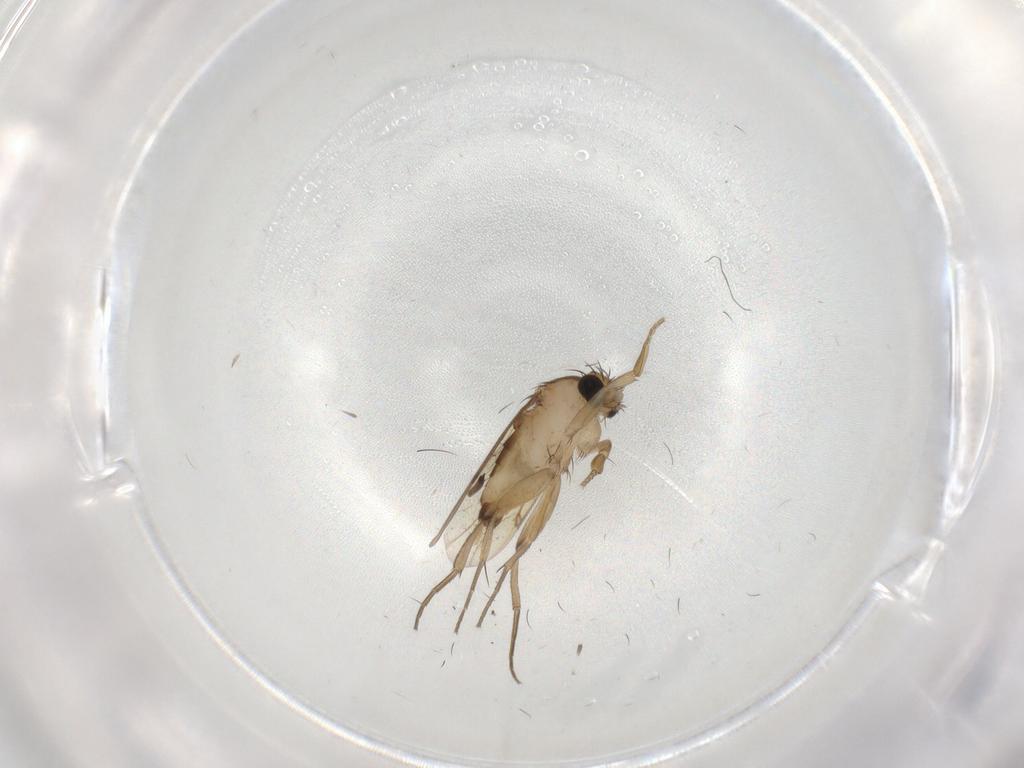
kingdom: Animalia
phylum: Arthropoda
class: Insecta
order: Diptera
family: Phoridae
